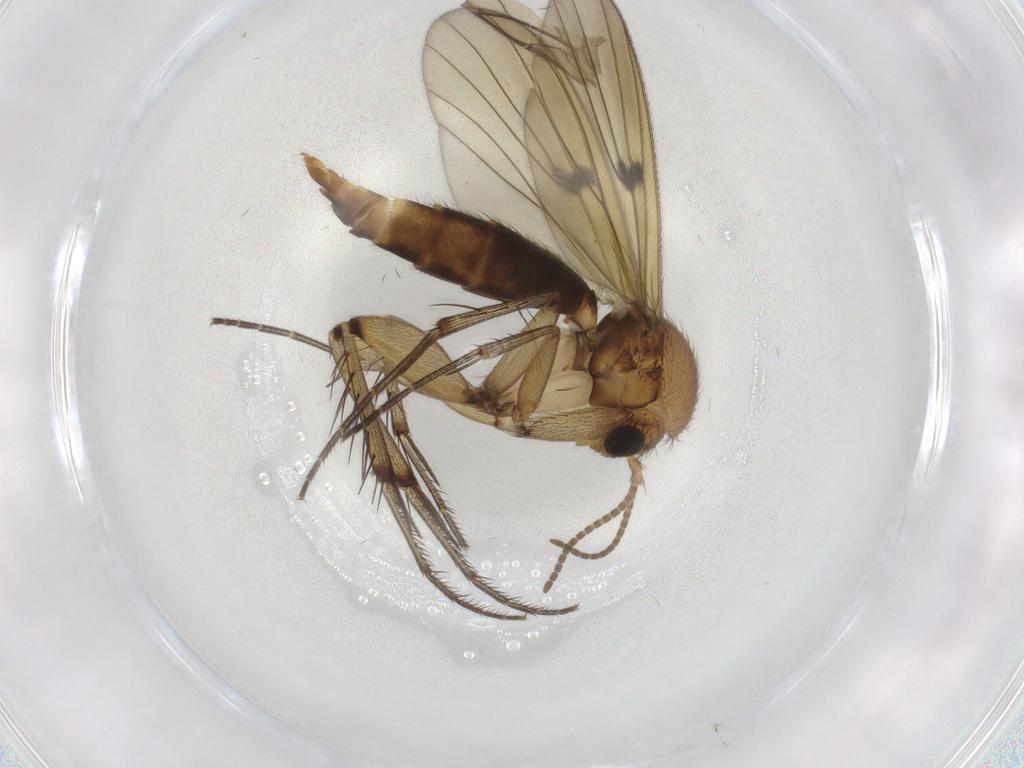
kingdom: Animalia
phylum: Arthropoda
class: Insecta
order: Diptera
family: Mycetophilidae
